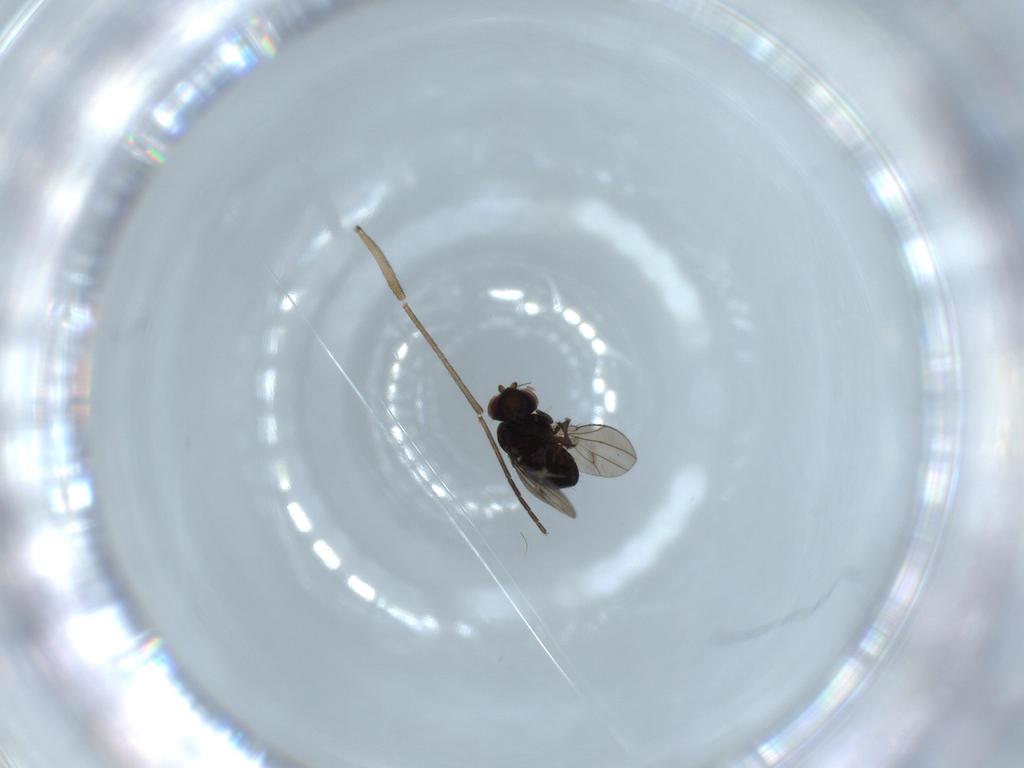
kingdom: Animalia
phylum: Arthropoda
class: Insecta
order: Diptera
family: Ephydridae
